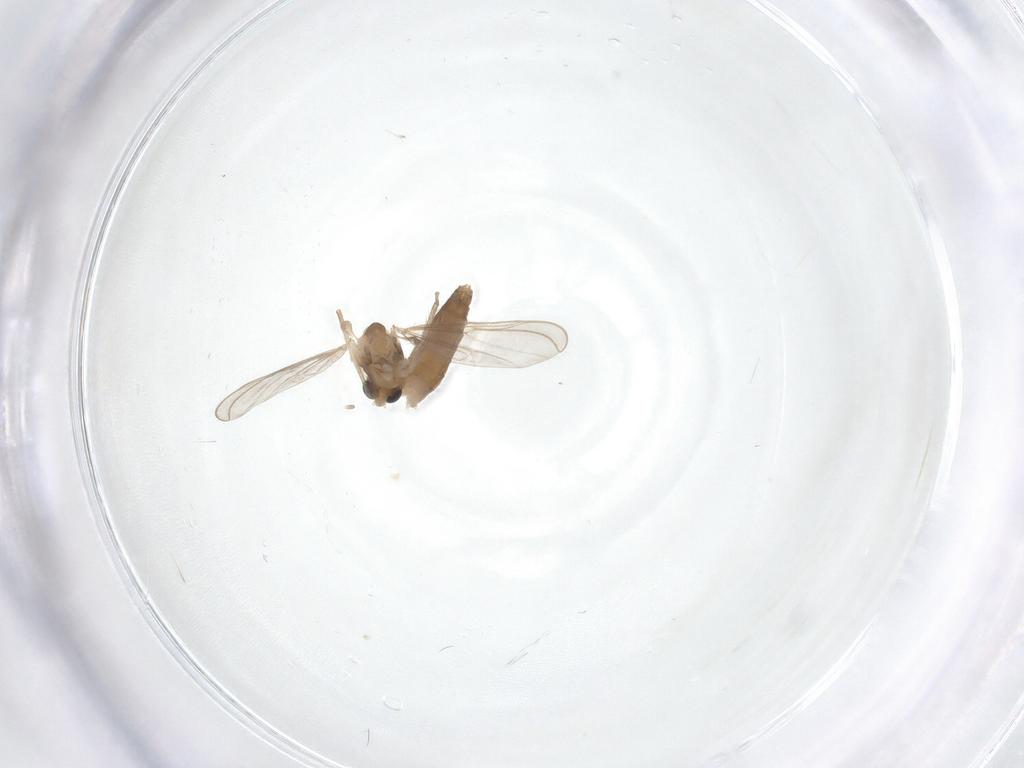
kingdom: Animalia
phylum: Arthropoda
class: Insecta
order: Diptera
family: Chironomidae
